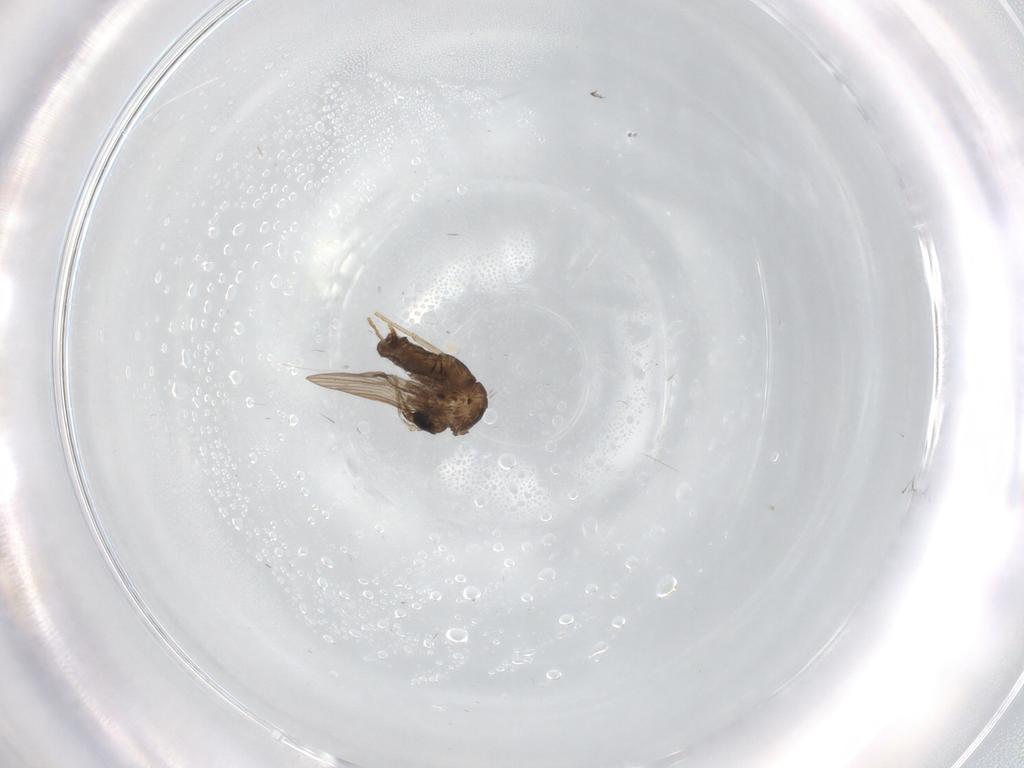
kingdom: Animalia
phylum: Arthropoda
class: Insecta
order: Diptera
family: Psychodidae
